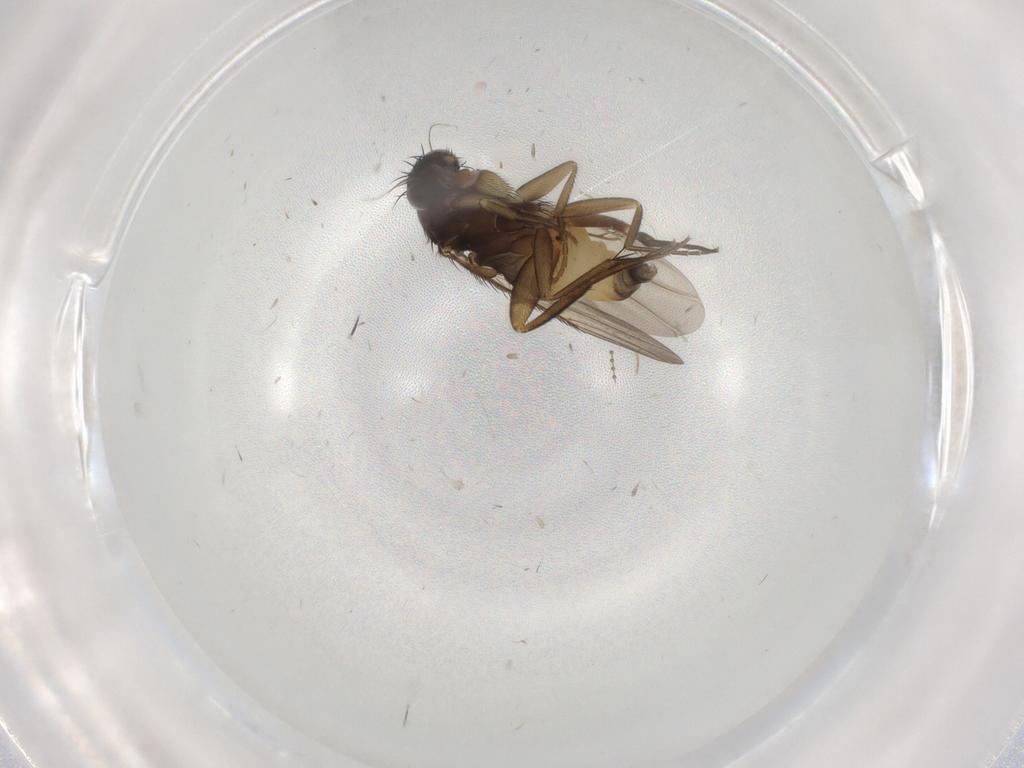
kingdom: Animalia
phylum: Arthropoda
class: Insecta
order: Diptera
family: Phoridae
